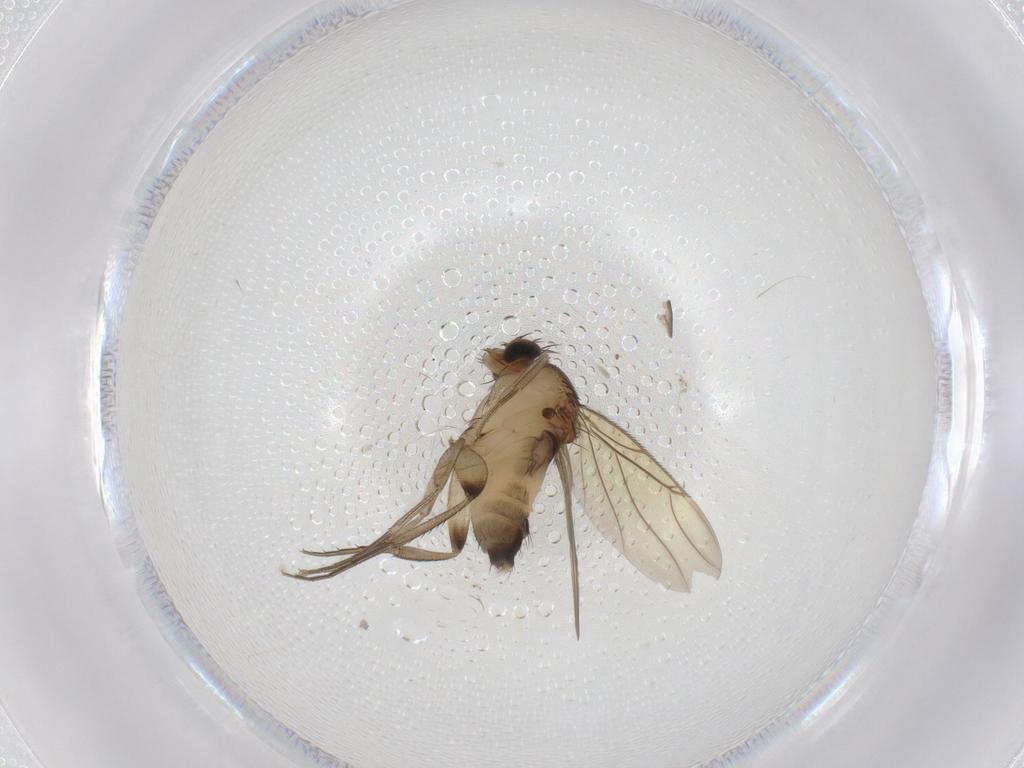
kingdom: Animalia
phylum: Arthropoda
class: Insecta
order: Diptera
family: Phoridae
